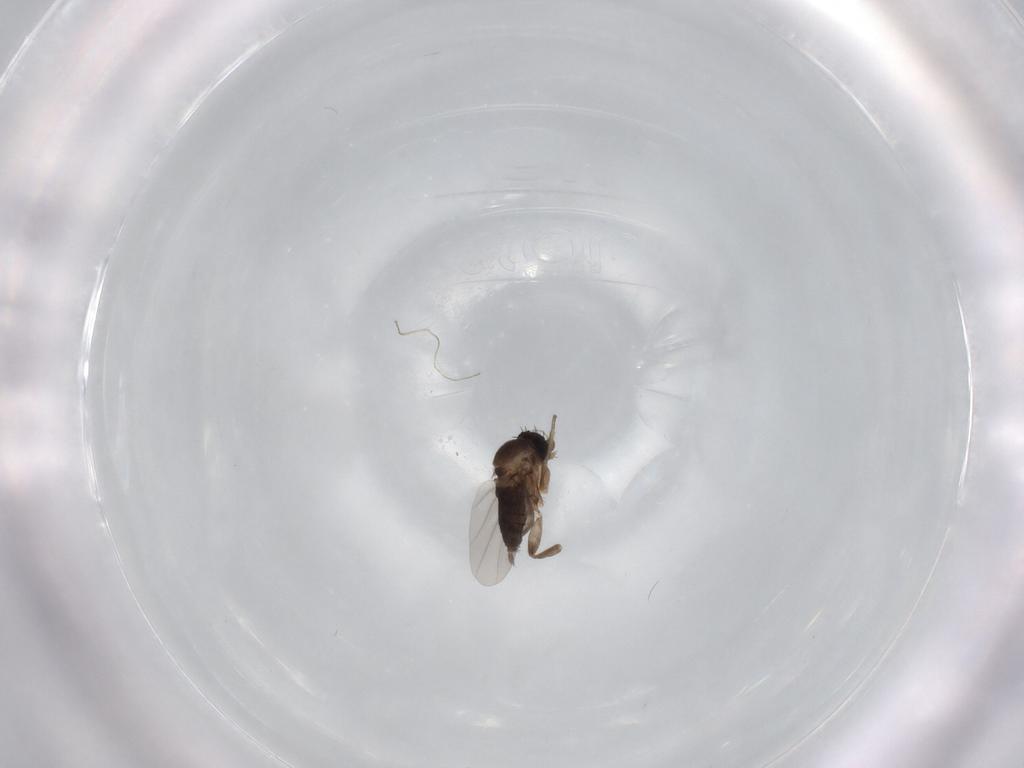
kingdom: Animalia
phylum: Arthropoda
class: Insecta
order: Diptera
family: Phoridae
